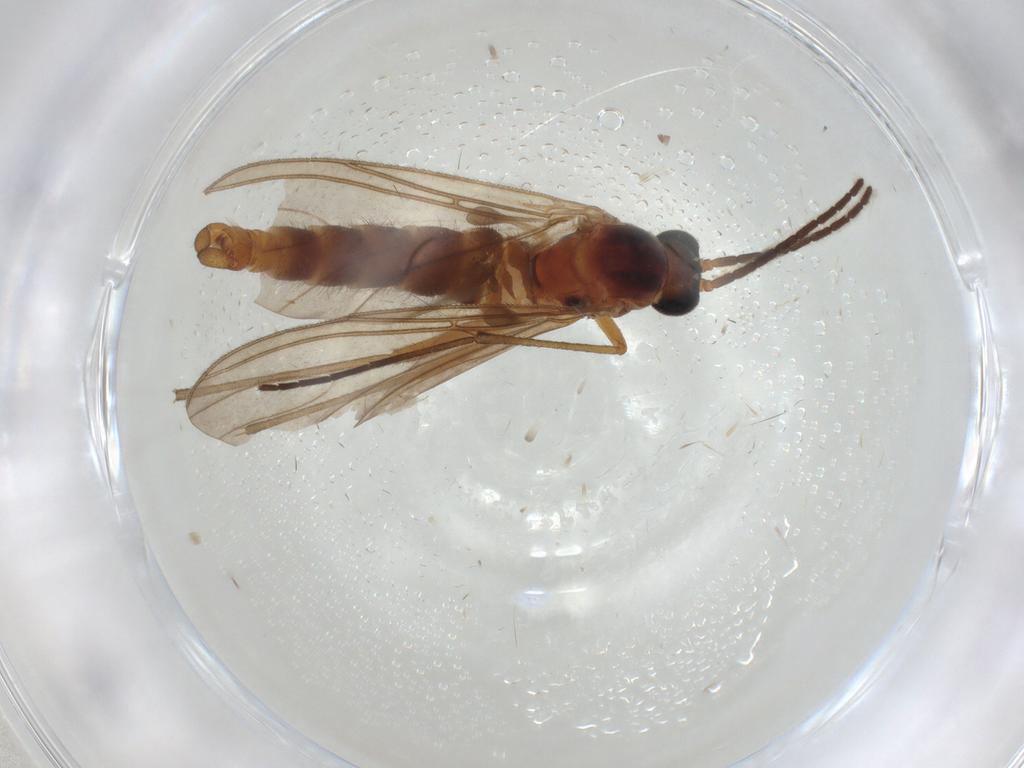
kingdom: Animalia
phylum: Arthropoda
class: Insecta
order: Diptera
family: Sciaridae
